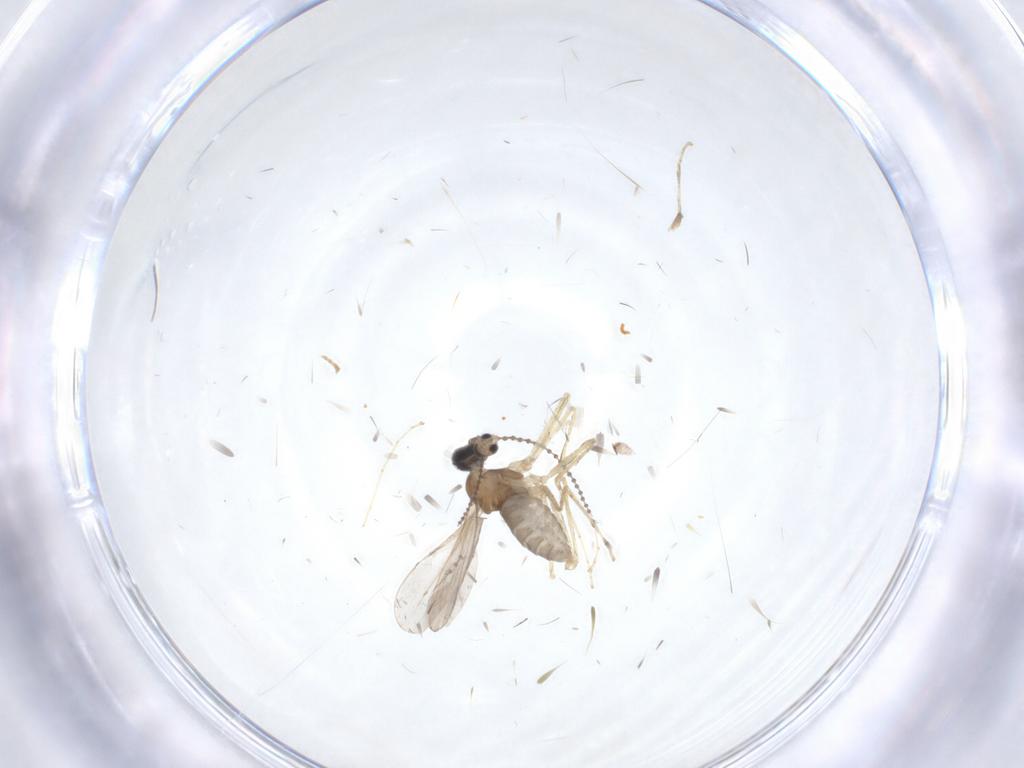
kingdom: Animalia
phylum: Arthropoda
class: Insecta
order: Diptera
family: Cecidomyiidae
